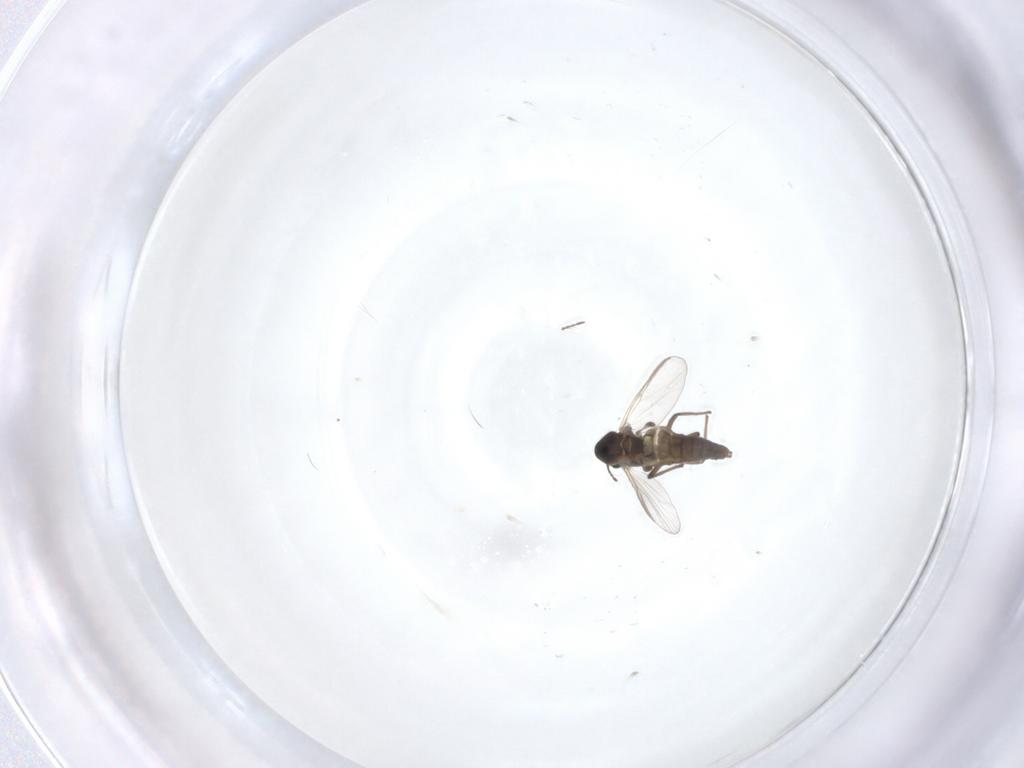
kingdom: Animalia
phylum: Arthropoda
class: Insecta
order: Diptera
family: Chironomidae
